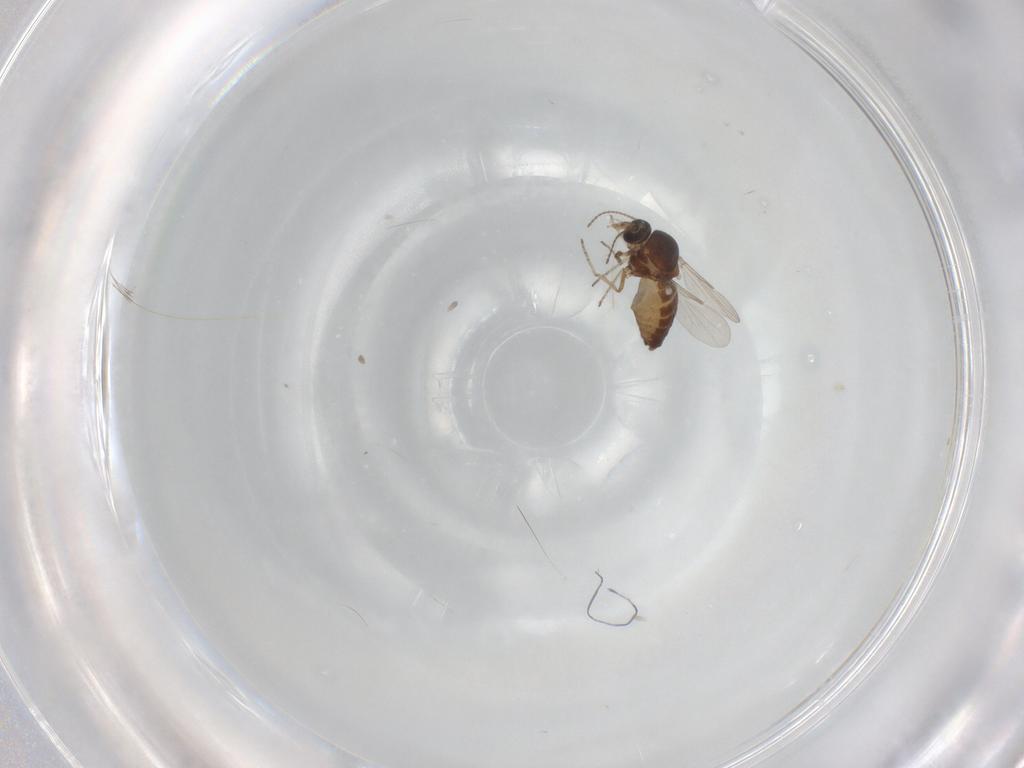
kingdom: Animalia
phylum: Arthropoda
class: Insecta
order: Diptera
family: Ceratopogonidae
